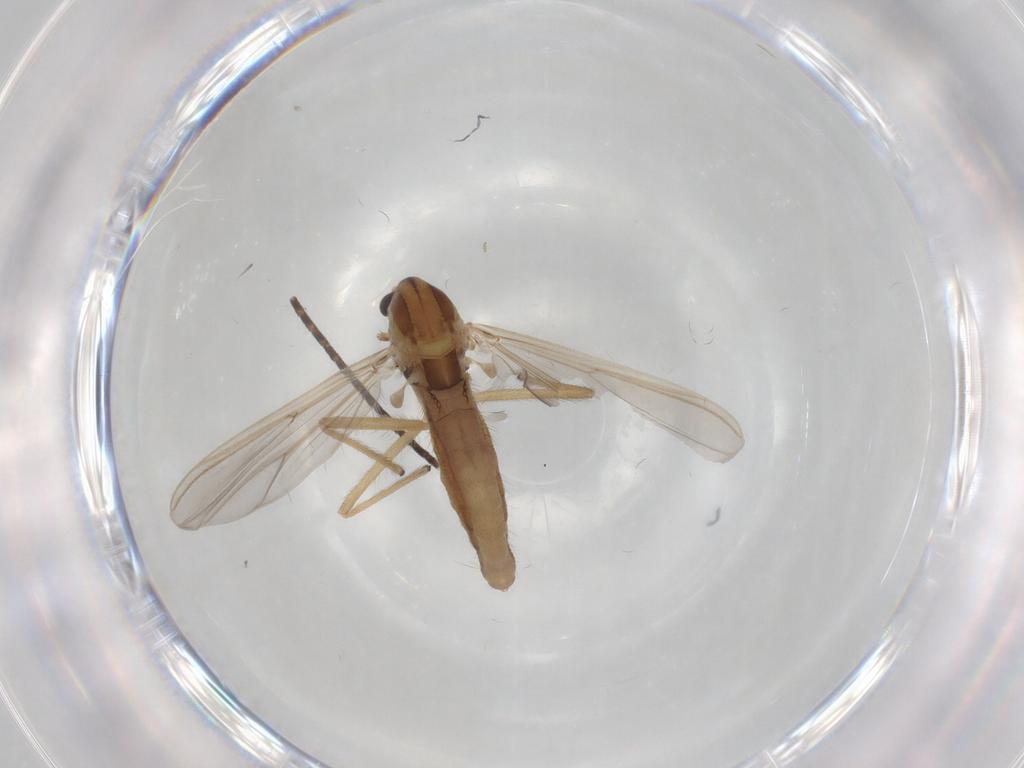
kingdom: Animalia
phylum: Arthropoda
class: Insecta
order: Diptera
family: Chironomidae
